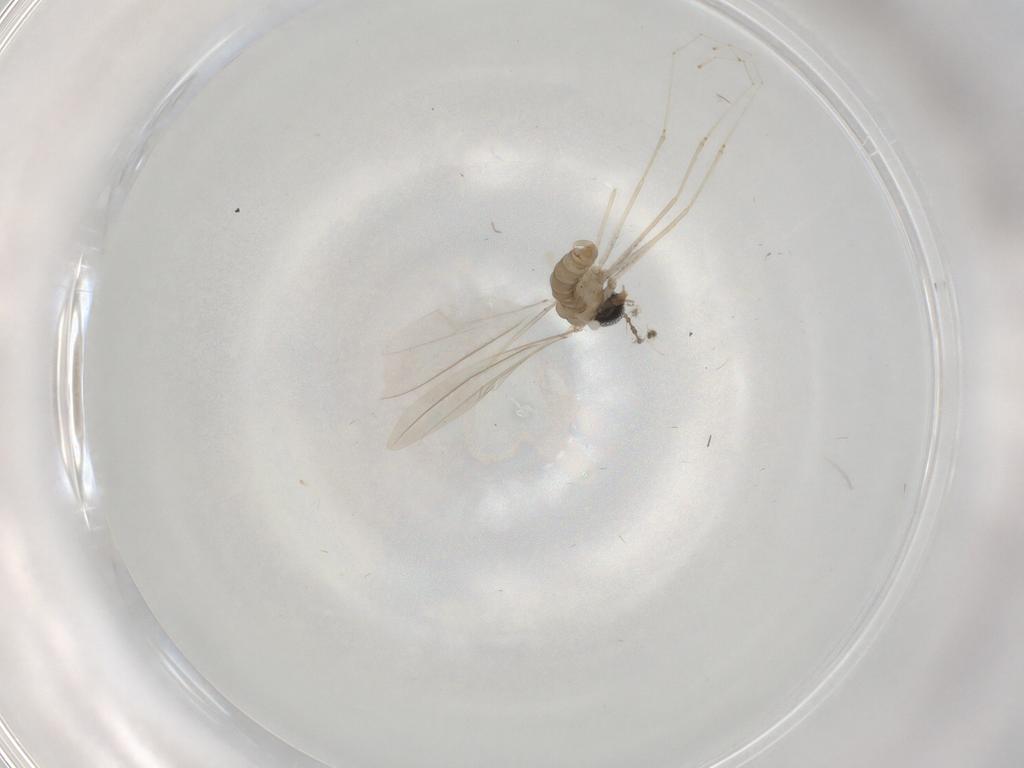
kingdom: Animalia
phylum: Arthropoda
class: Insecta
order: Diptera
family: Cecidomyiidae
